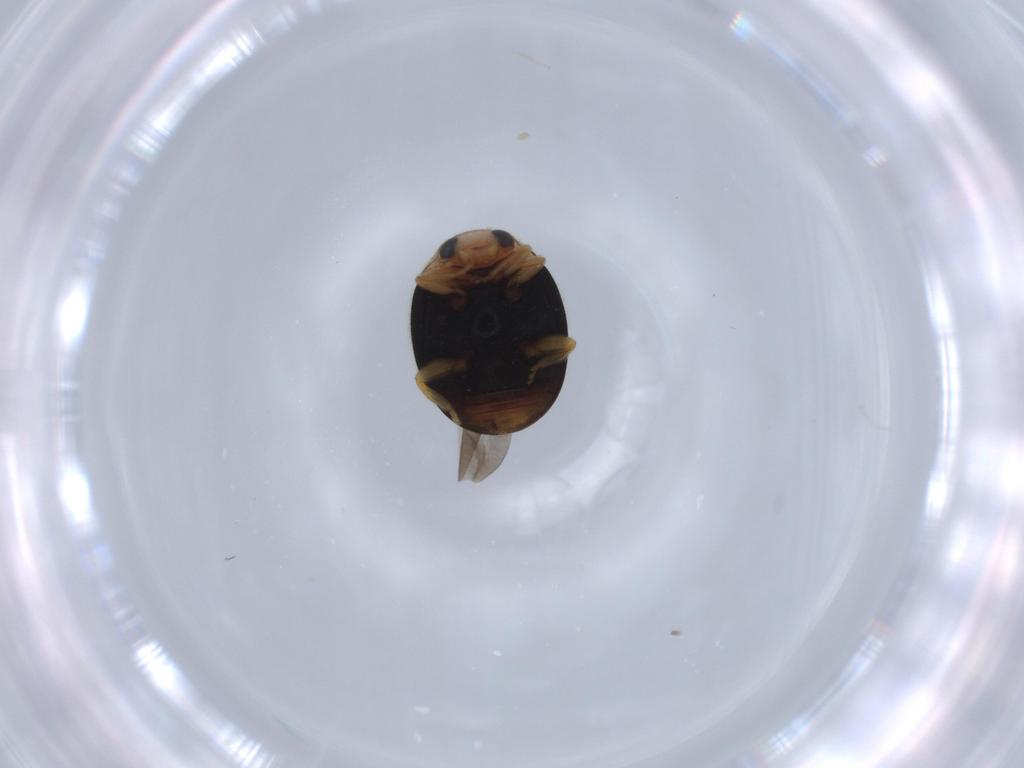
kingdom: Animalia
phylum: Arthropoda
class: Insecta
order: Coleoptera
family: Coccinellidae
